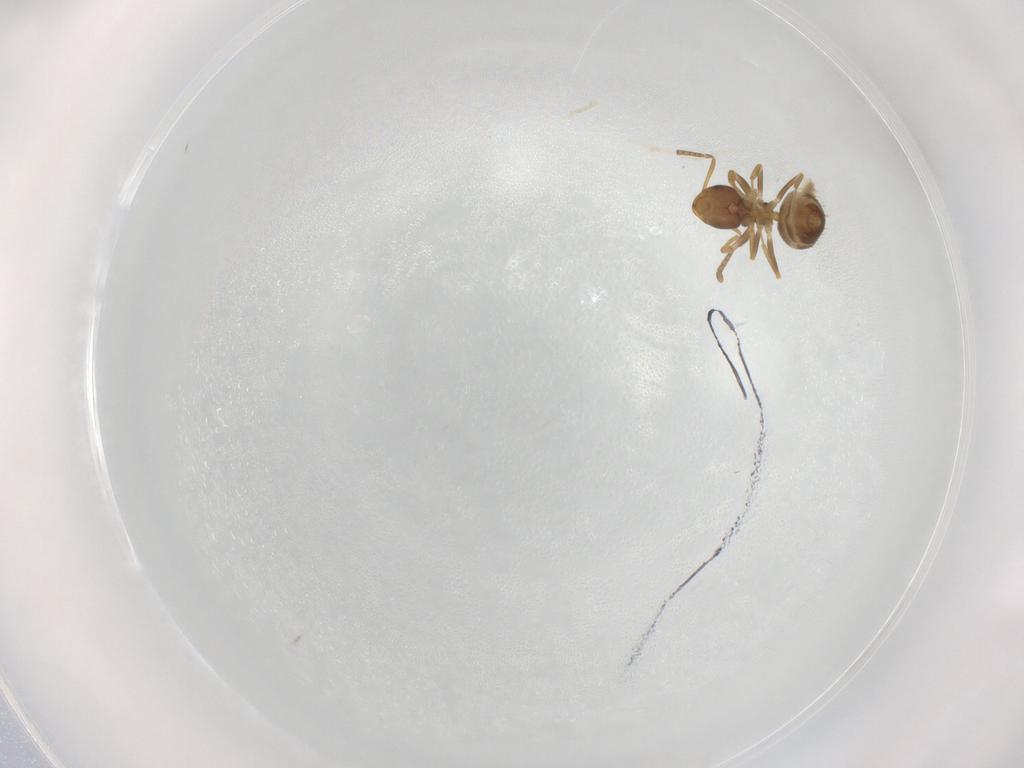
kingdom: Animalia
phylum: Arthropoda
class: Insecta
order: Hymenoptera
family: Formicidae
